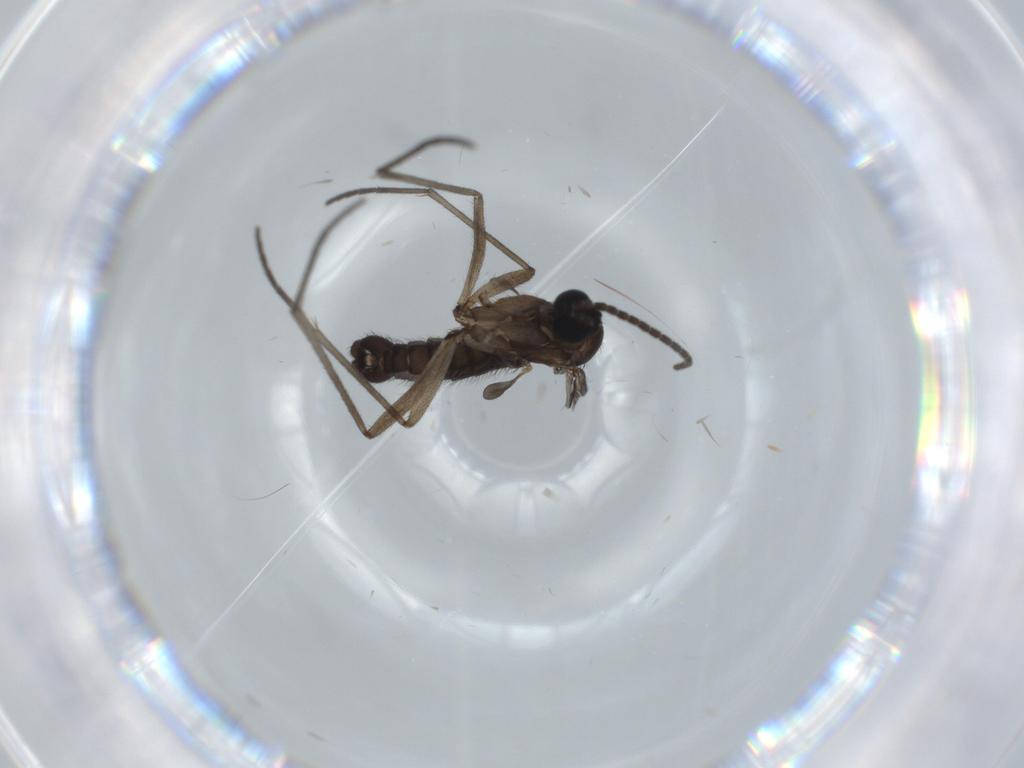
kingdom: Animalia
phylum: Arthropoda
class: Insecta
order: Diptera
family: Sciaridae
